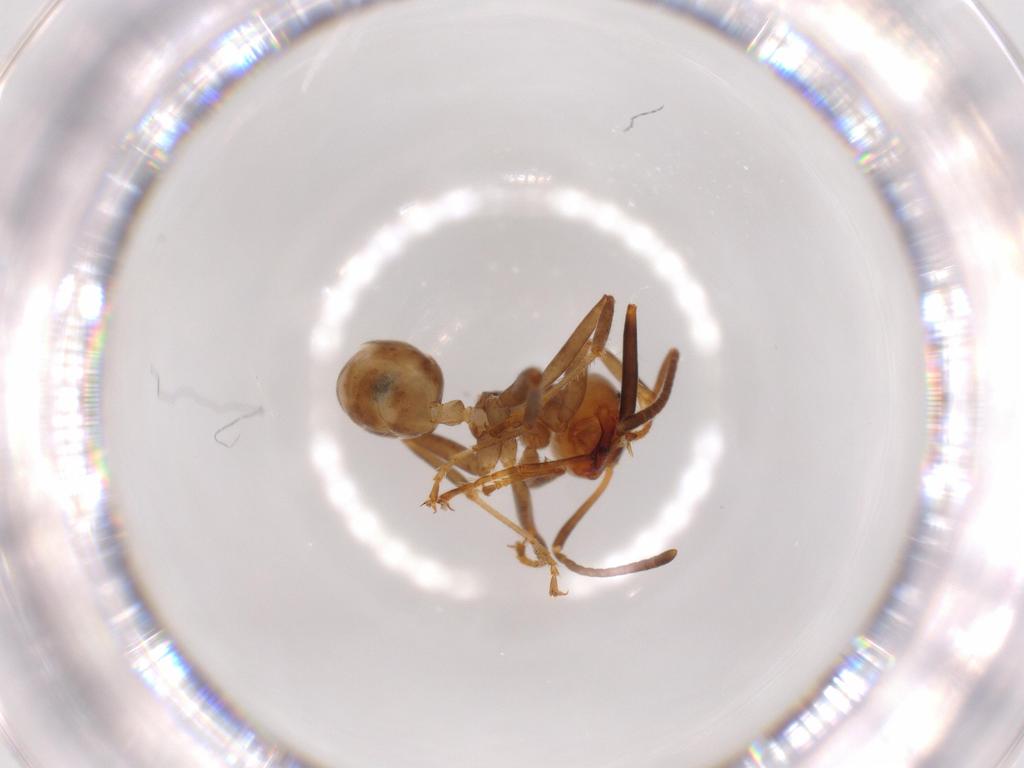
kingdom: Animalia
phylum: Arthropoda
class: Insecta
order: Hymenoptera
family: Formicidae
